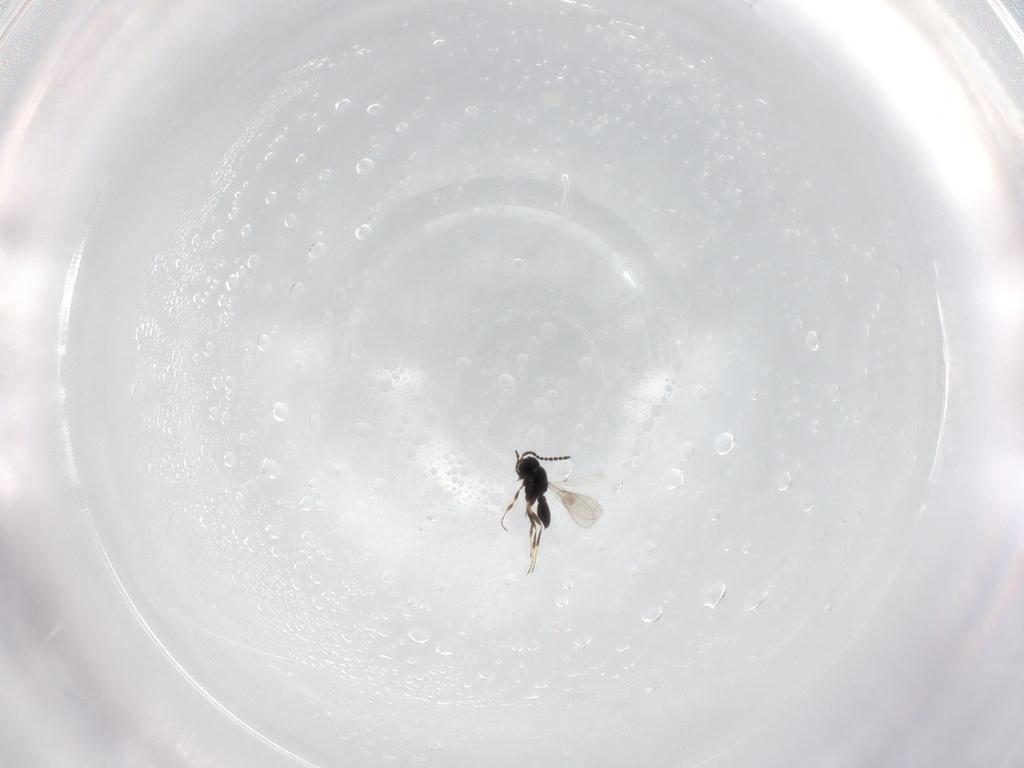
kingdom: Animalia
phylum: Arthropoda
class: Insecta
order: Hymenoptera
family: Scelionidae
